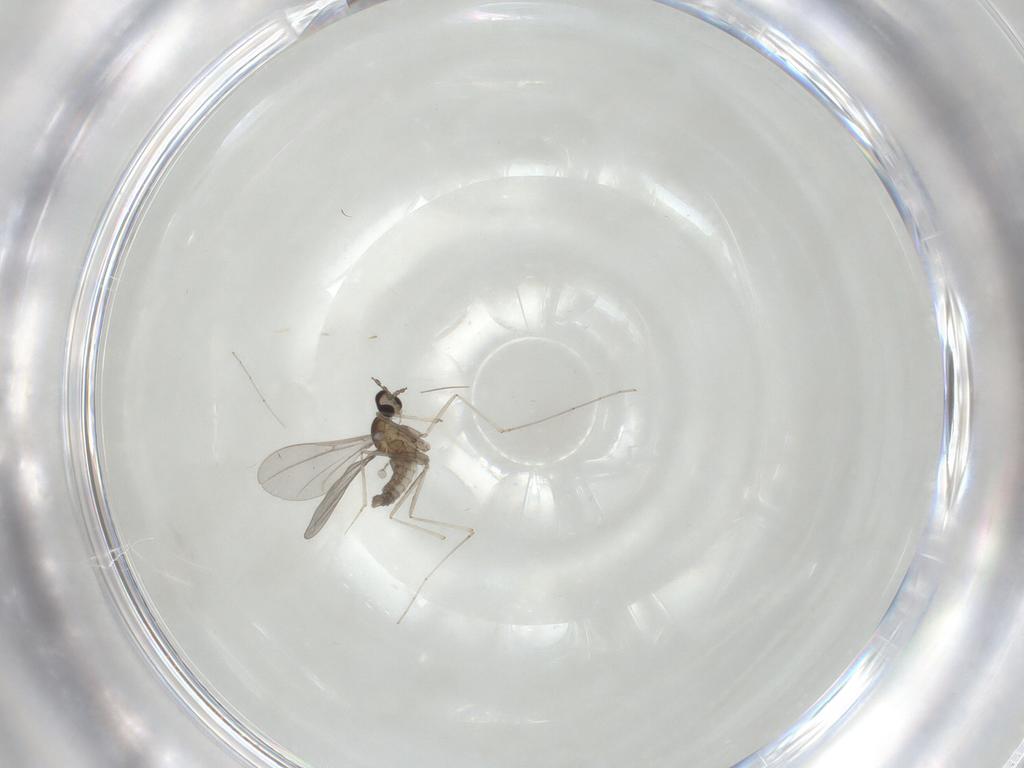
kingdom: Animalia
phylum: Arthropoda
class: Insecta
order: Diptera
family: Cecidomyiidae
